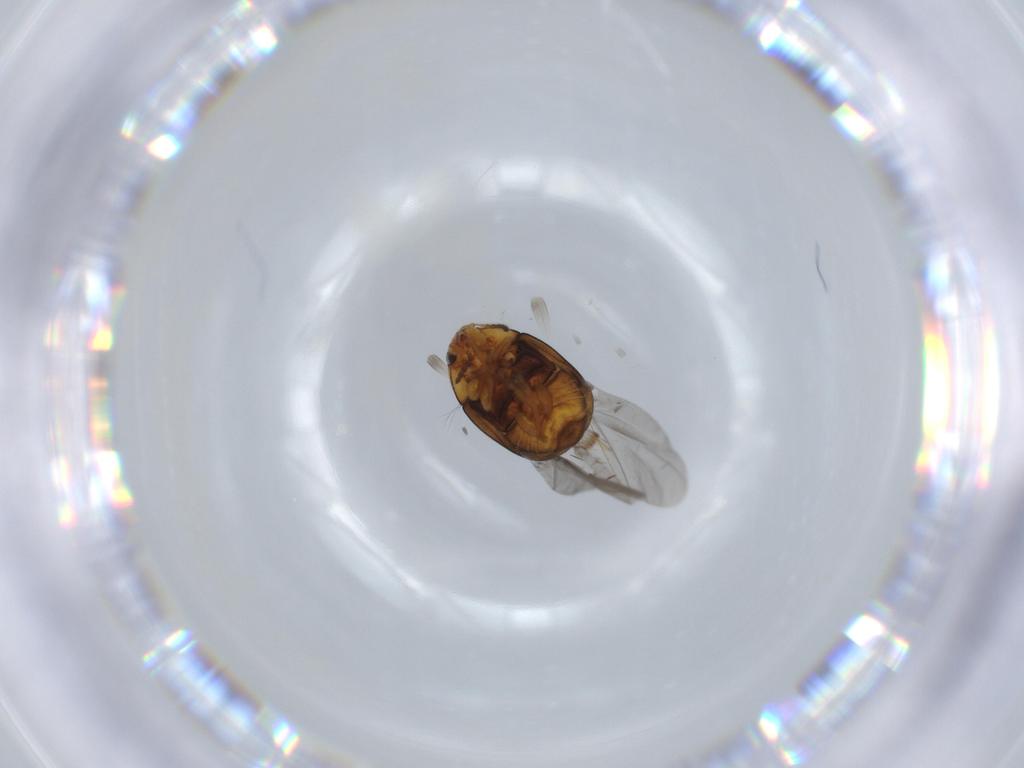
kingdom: Animalia
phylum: Arthropoda
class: Insecta
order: Coleoptera
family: Chrysomelidae
